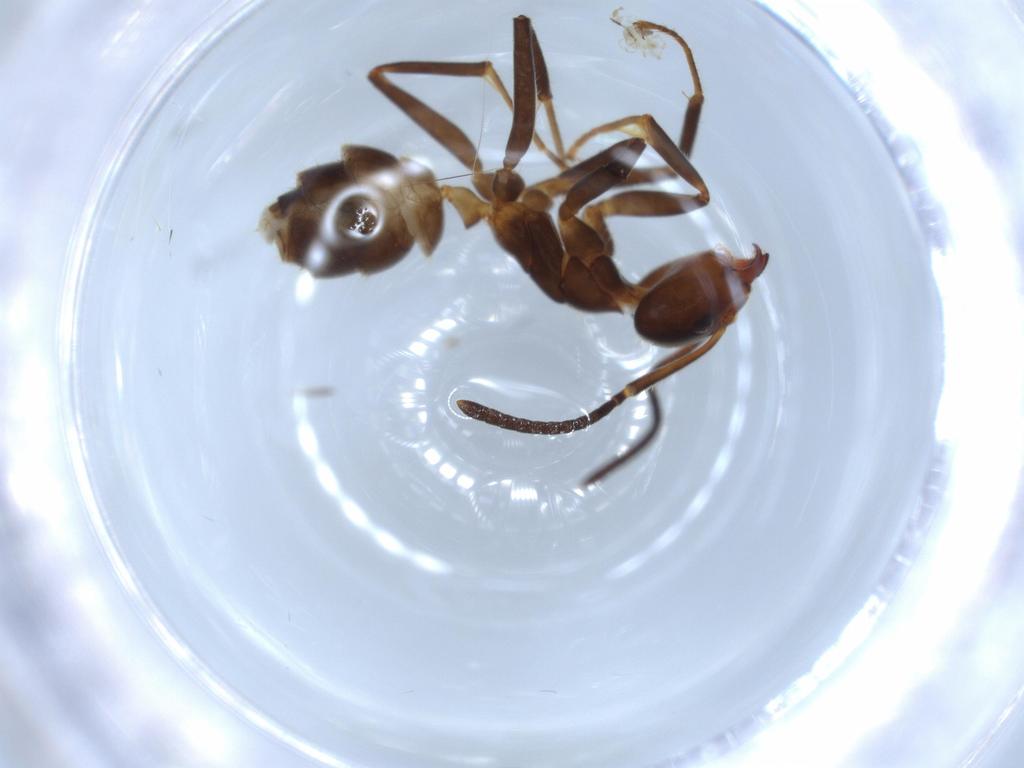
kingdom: Animalia
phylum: Arthropoda
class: Insecta
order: Hymenoptera
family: Formicidae
